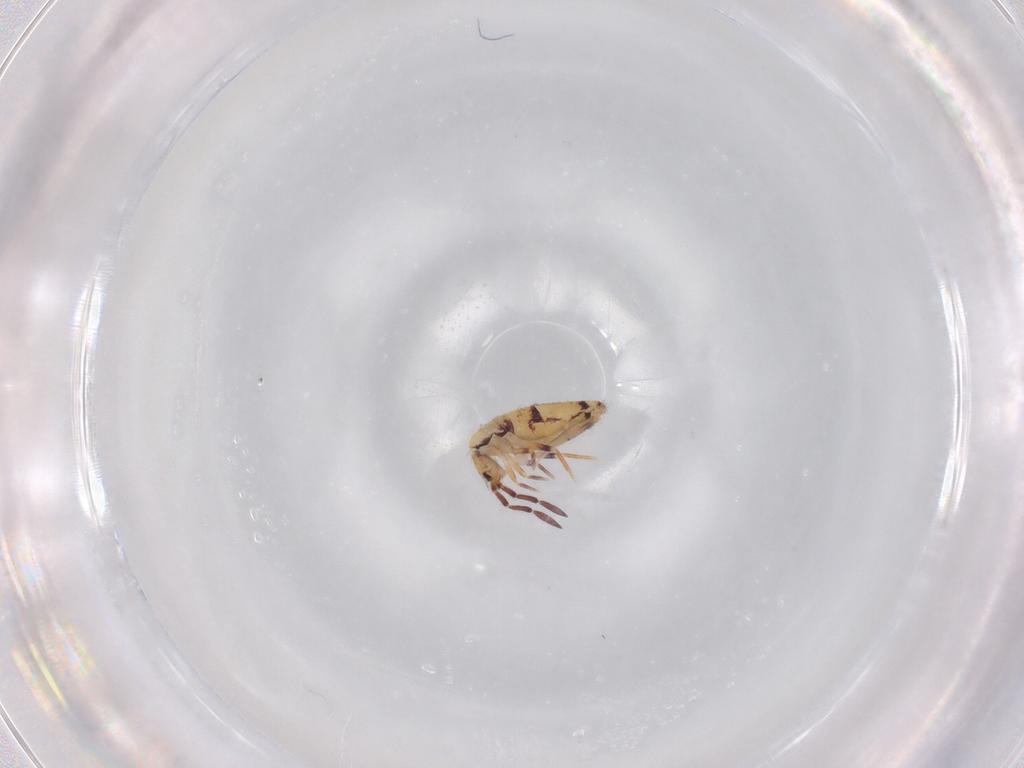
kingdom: Animalia
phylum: Arthropoda
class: Collembola
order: Entomobryomorpha
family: Entomobryidae
